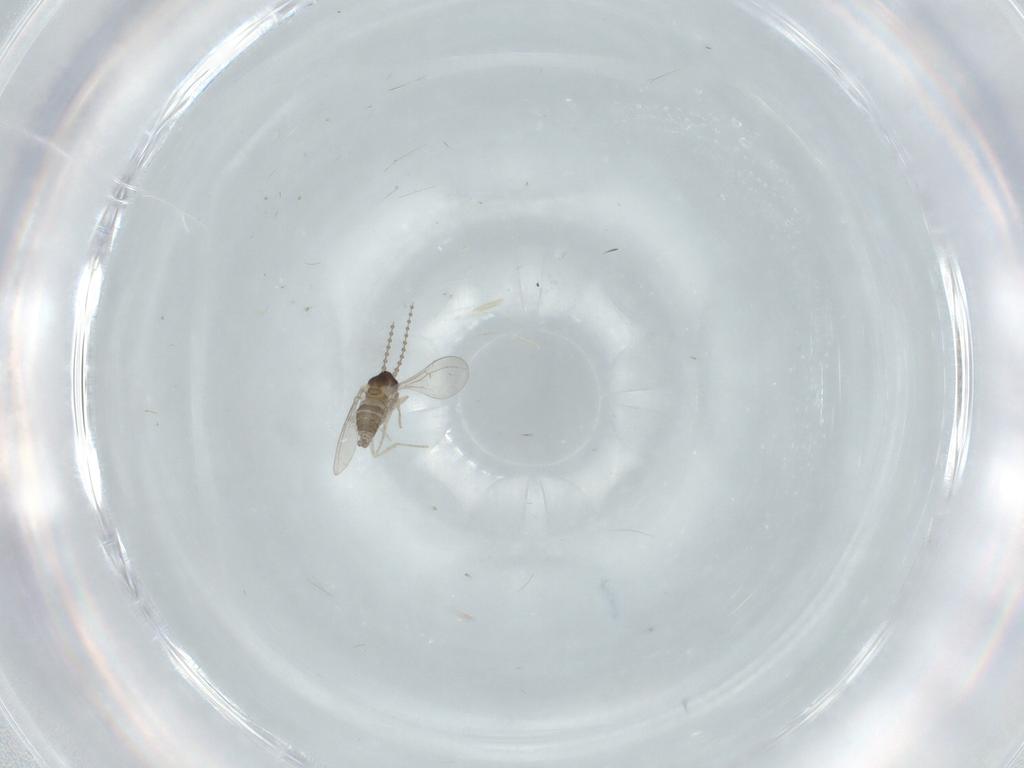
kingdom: Animalia
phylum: Arthropoda
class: Insecta
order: Diptera
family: Cecidomyiidae
